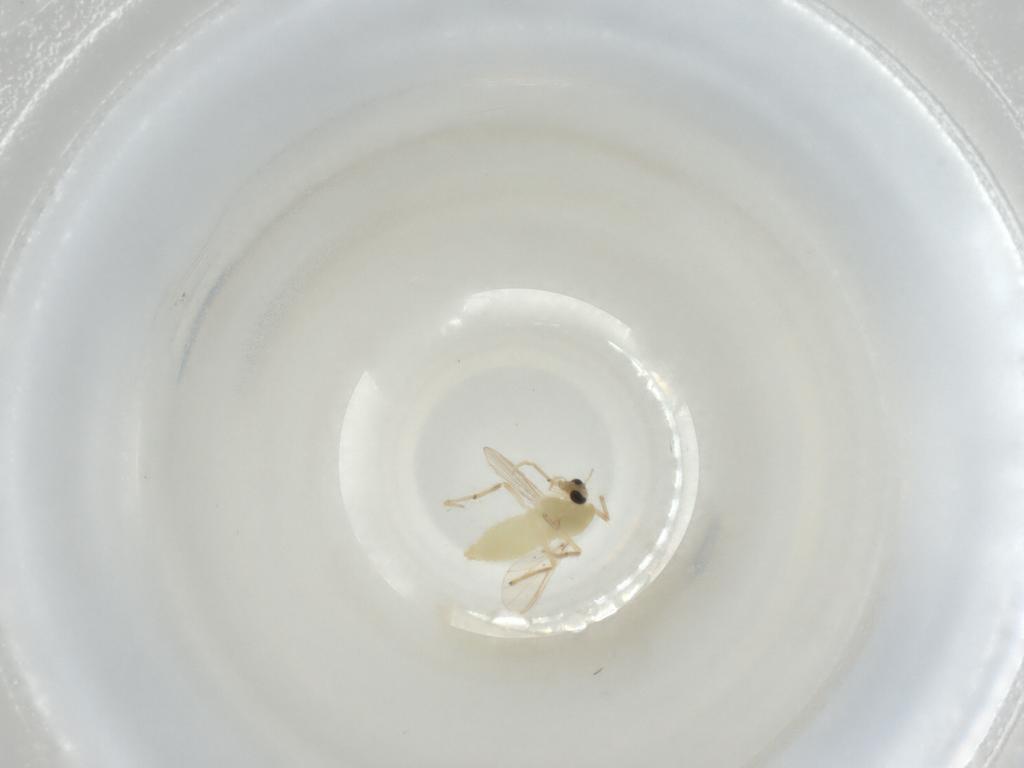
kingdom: Animalia
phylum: Arthropoda
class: Insecta
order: Diptera
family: Chironomidae
